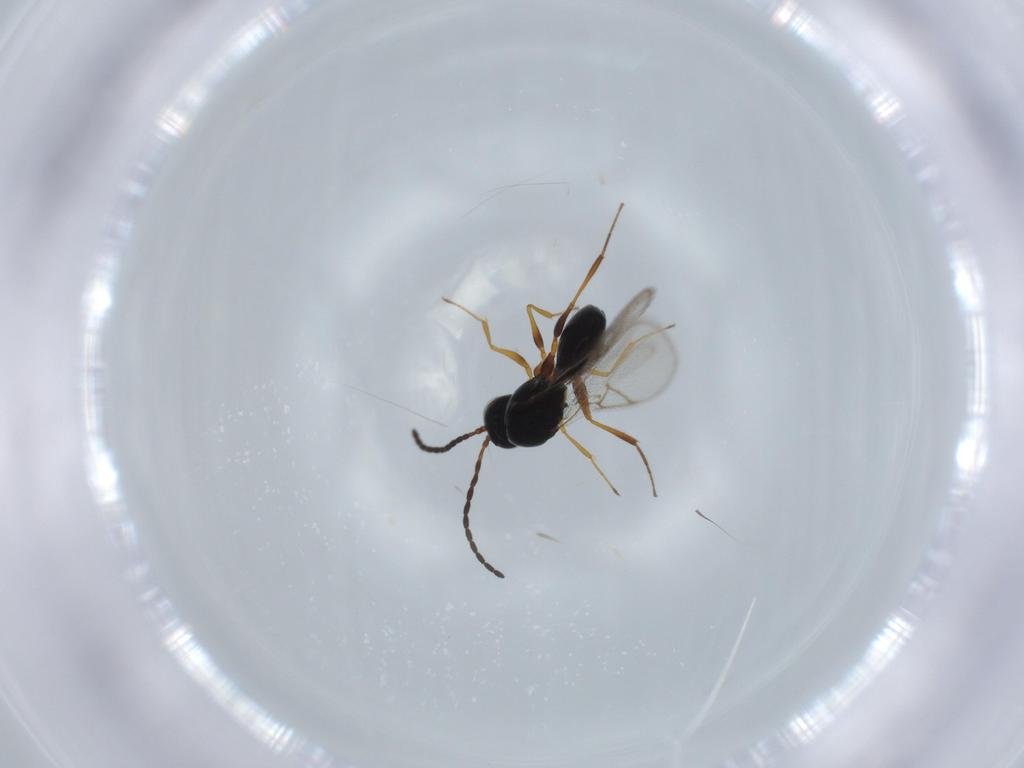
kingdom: Animalia
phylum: Arthropoda
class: Insecta
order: Hymenoptera
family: Figitidae
